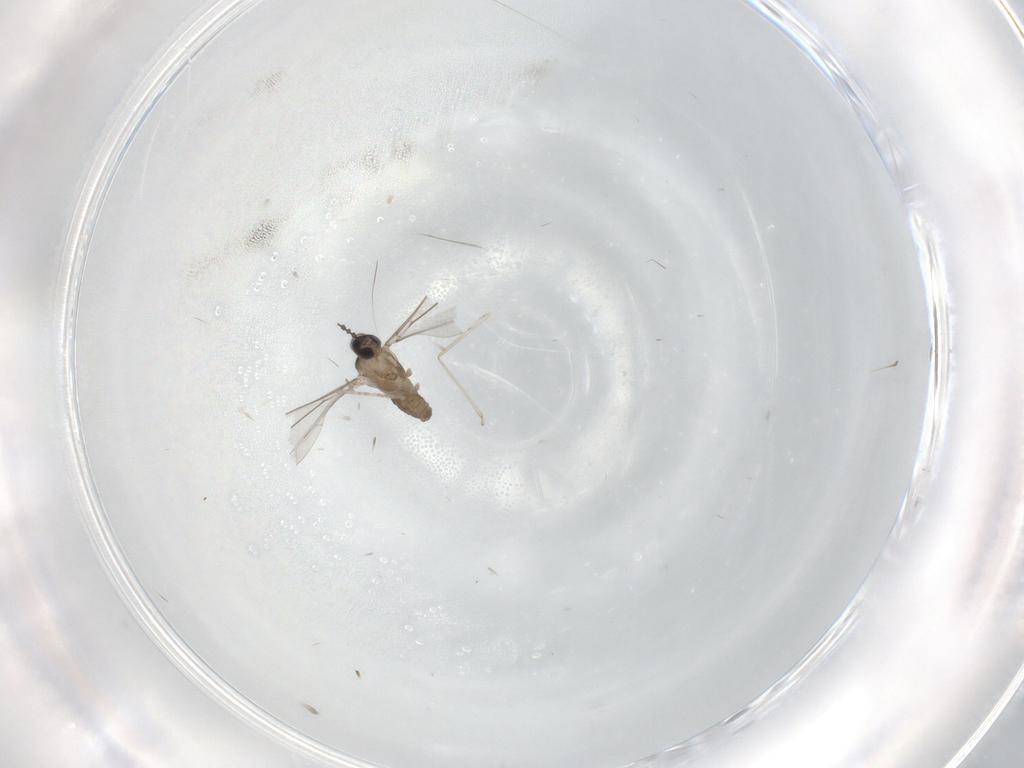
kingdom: Animalia
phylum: Arthropoda
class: Insecta
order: Diptera
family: Cecidomyiidae
